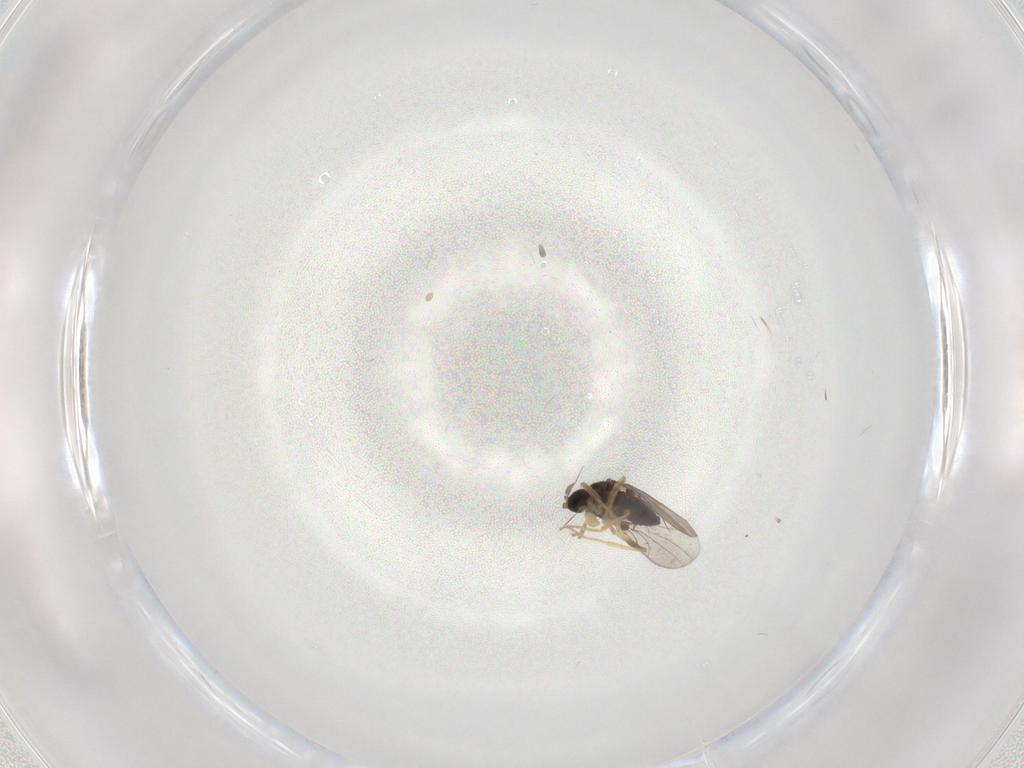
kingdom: Animalia
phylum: Arthropoda
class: Insecta
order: Diptera
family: Hybotidae
